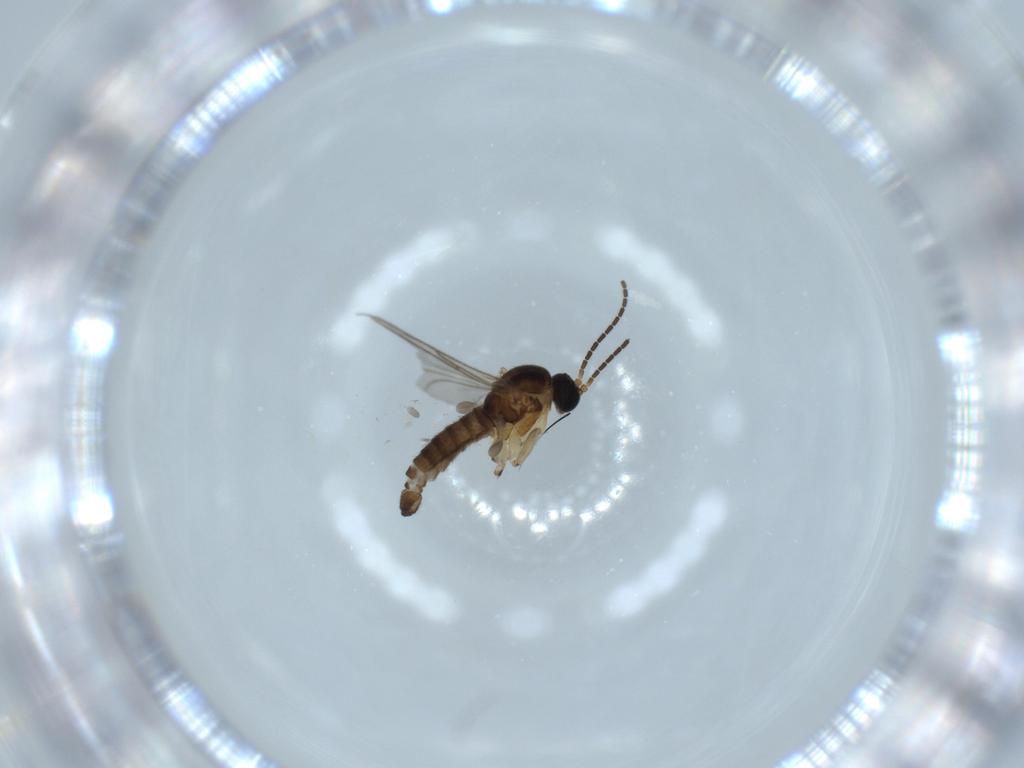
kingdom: Animalia
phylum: Arthropoda
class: Insecta
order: Diptera
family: Sciaridae
